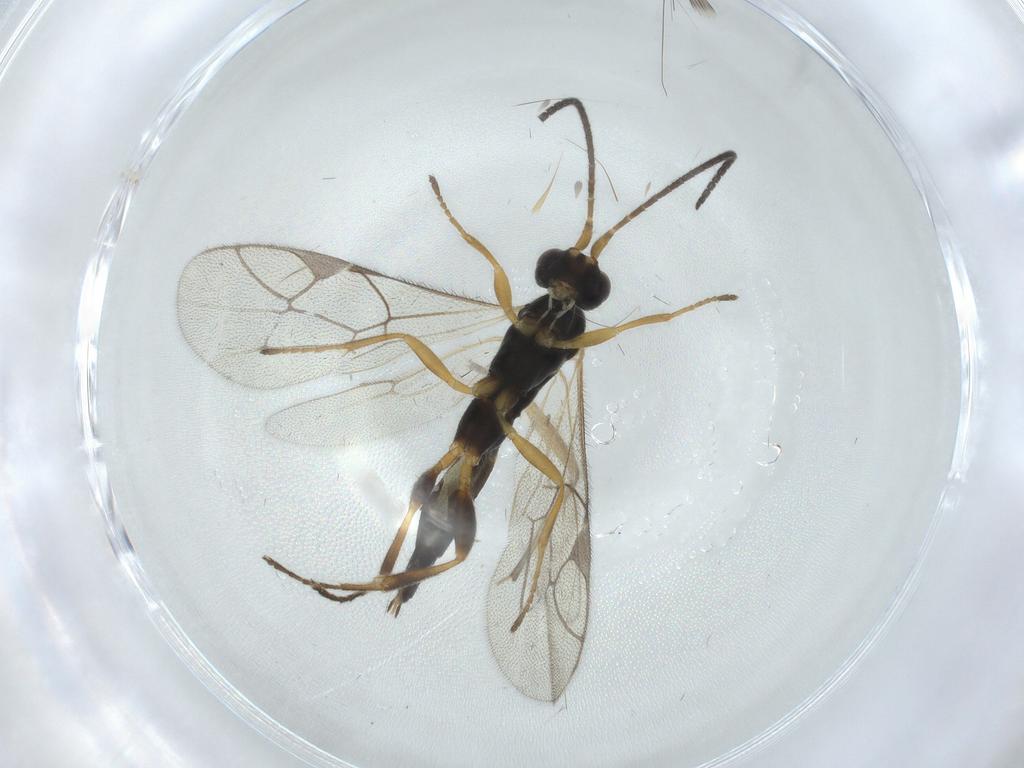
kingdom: Animalia
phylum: Arthropoda
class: Insecta
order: Hymenoptera
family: Ichneumonidae
